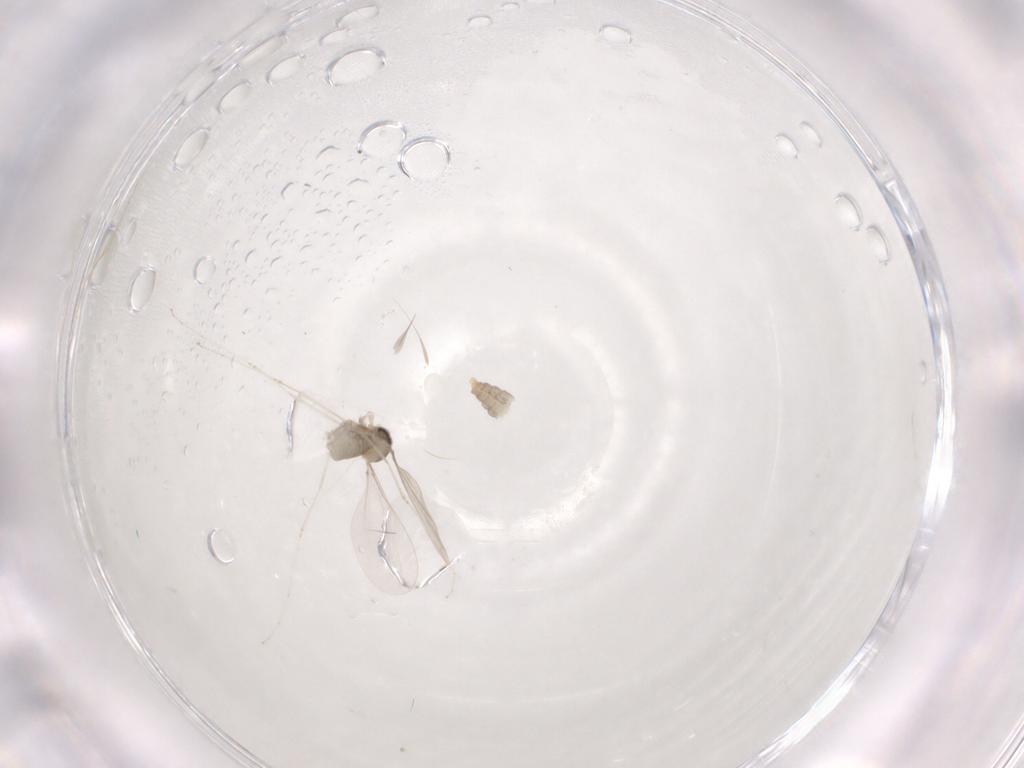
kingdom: Animalia
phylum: Arthropoda
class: Insecta
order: Diptera
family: Cecidomyiidae
